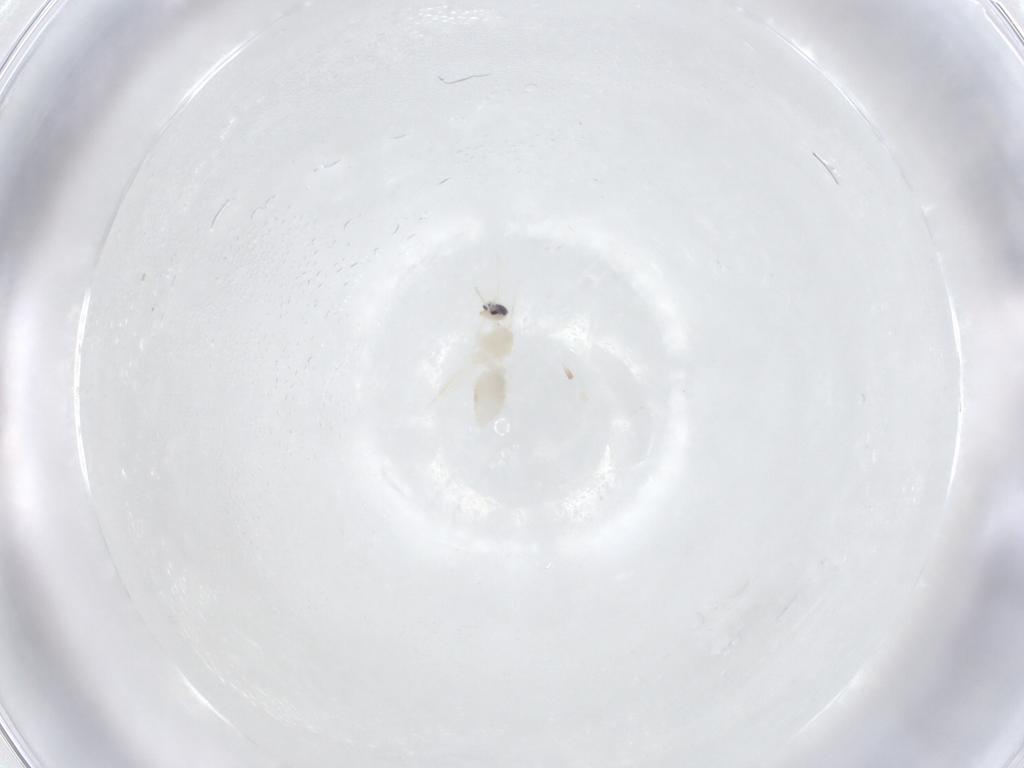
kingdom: Animalia
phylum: Arthropoda
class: Insecta
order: Diptera
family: Cecidomyiidae
